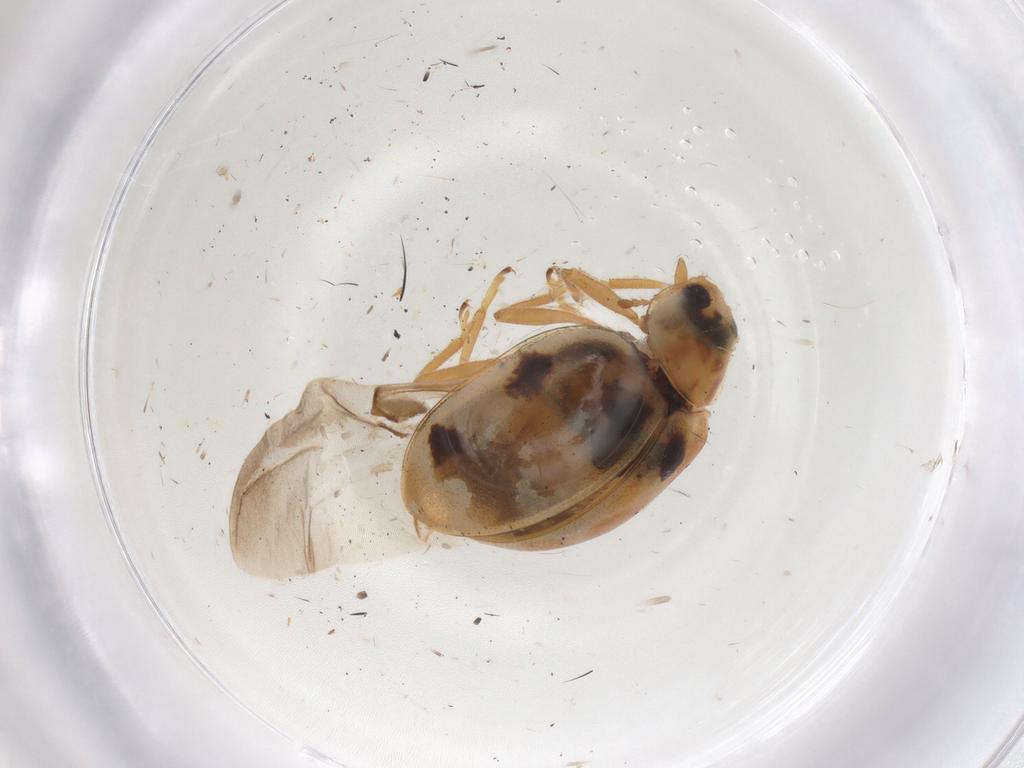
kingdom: Animalia
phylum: Arthropoda
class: Insecta
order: Coleoptera
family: Coccinellidae
